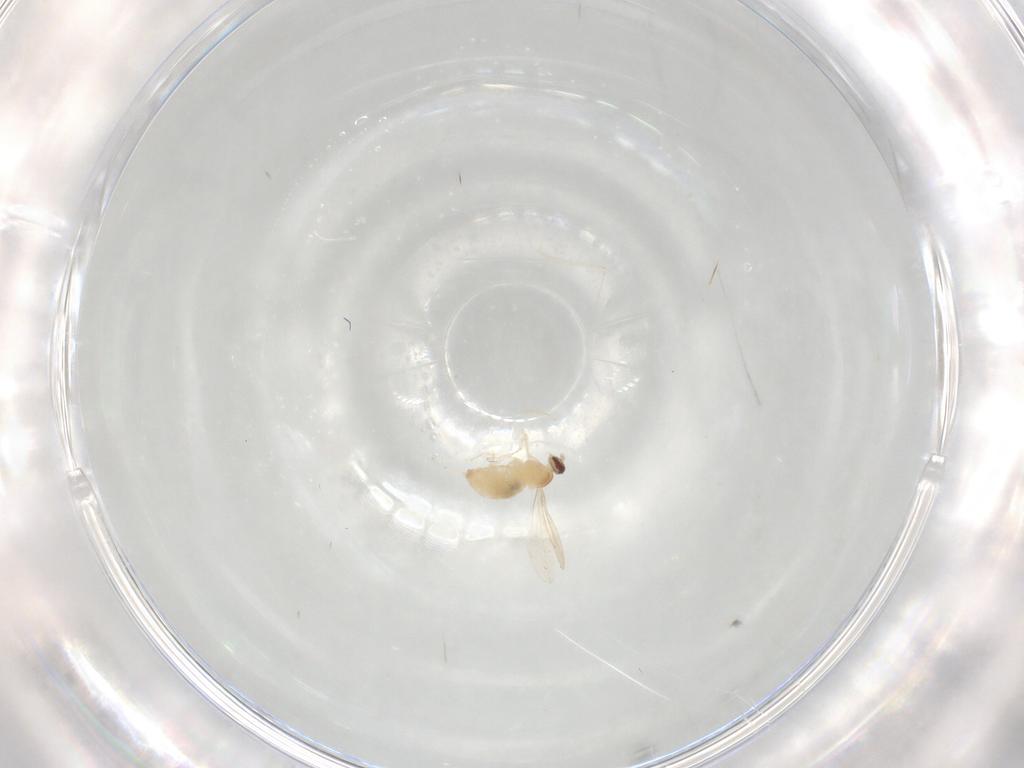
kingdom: Animalia
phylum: Arthropoda
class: Insecta
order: Diptera
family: Cecidomyiidae
